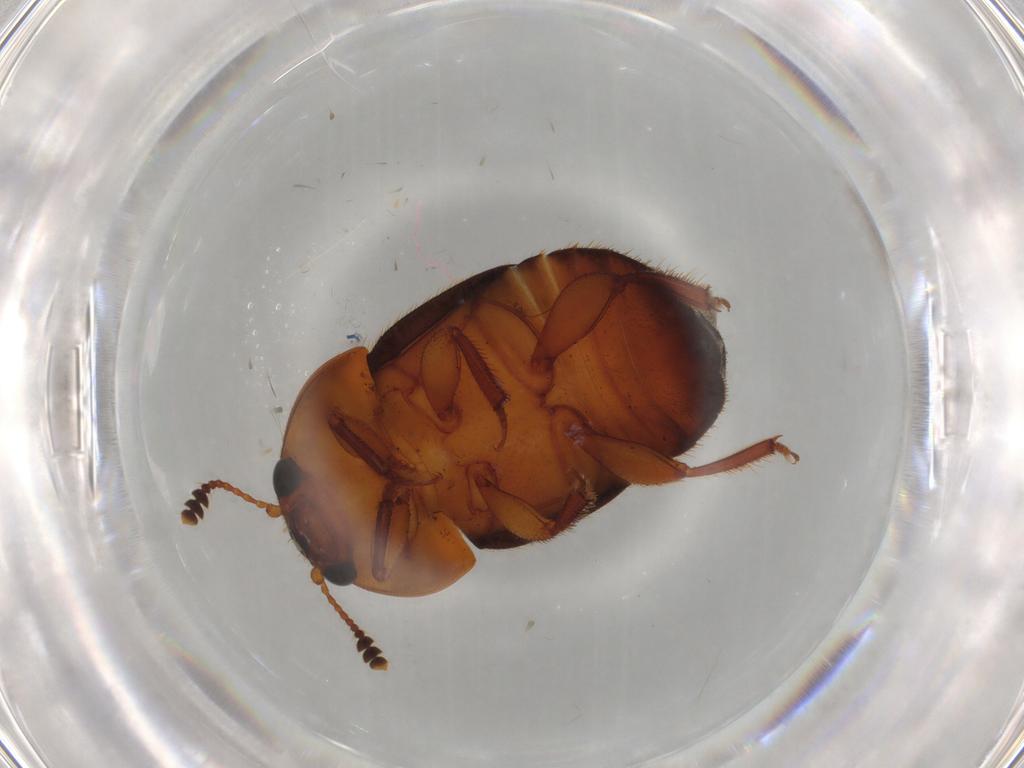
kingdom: Animalia
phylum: Arthropoda
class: Insecta
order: Coleoptera
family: Nitidulidae
